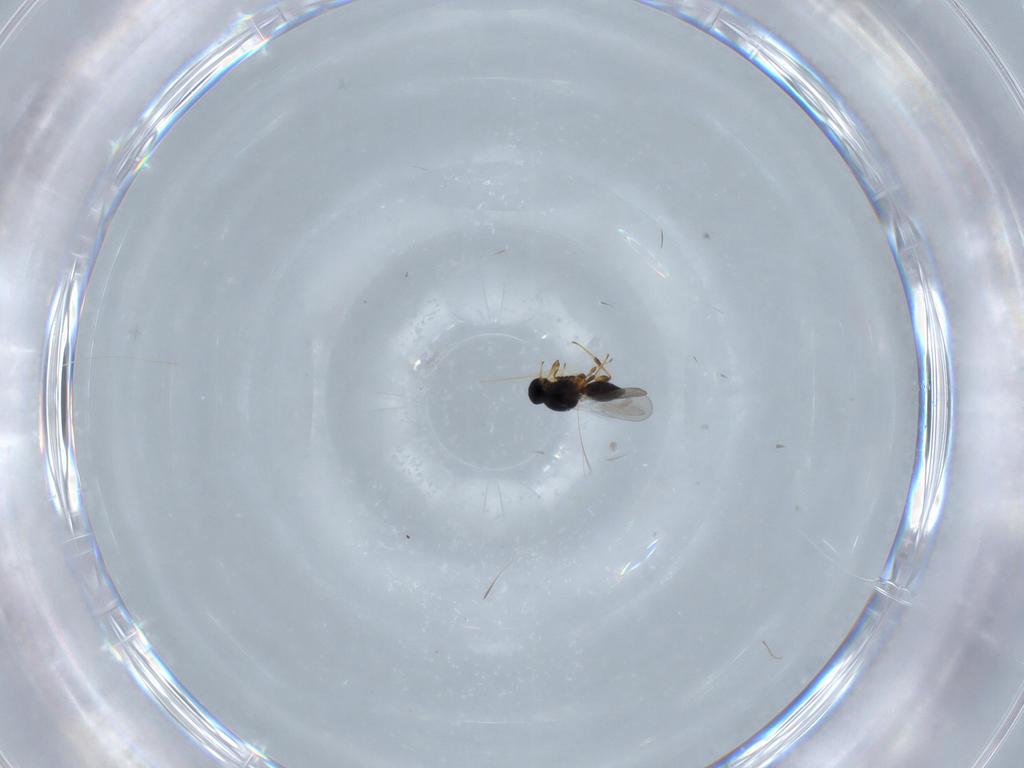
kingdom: Animalia
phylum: Arthropoda
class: Insecta
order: Hymenoptera
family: Platygastridae
